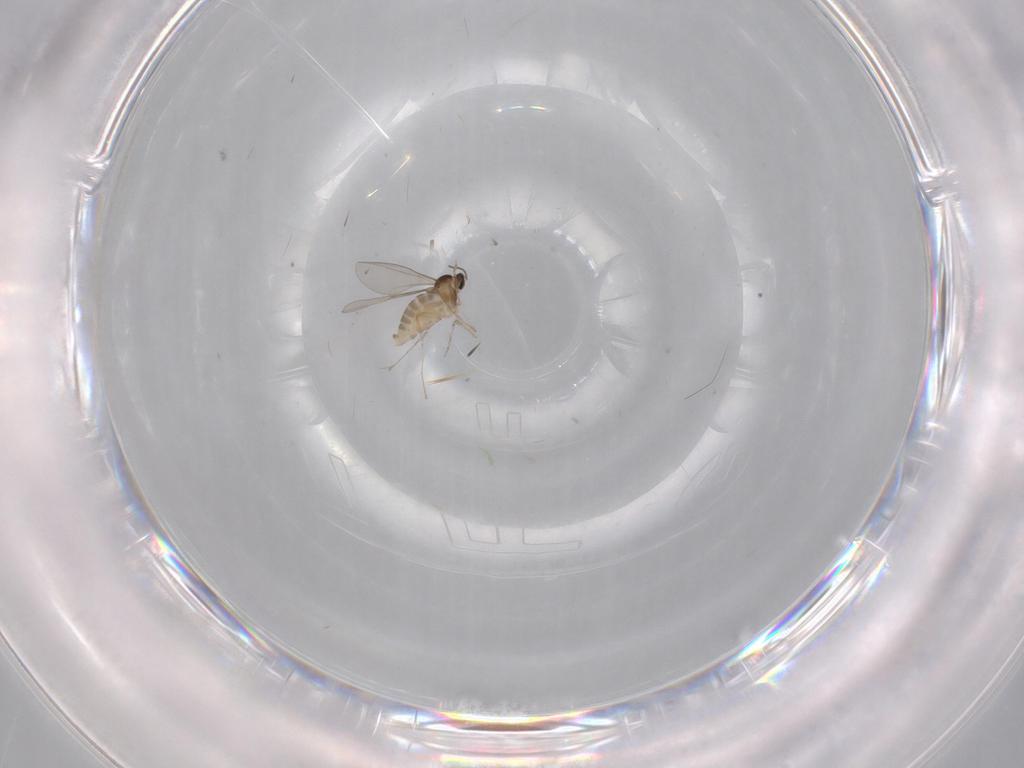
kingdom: Animalia
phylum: Arthropoda
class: Insecta
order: Diptera
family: Cecidomyiidae
